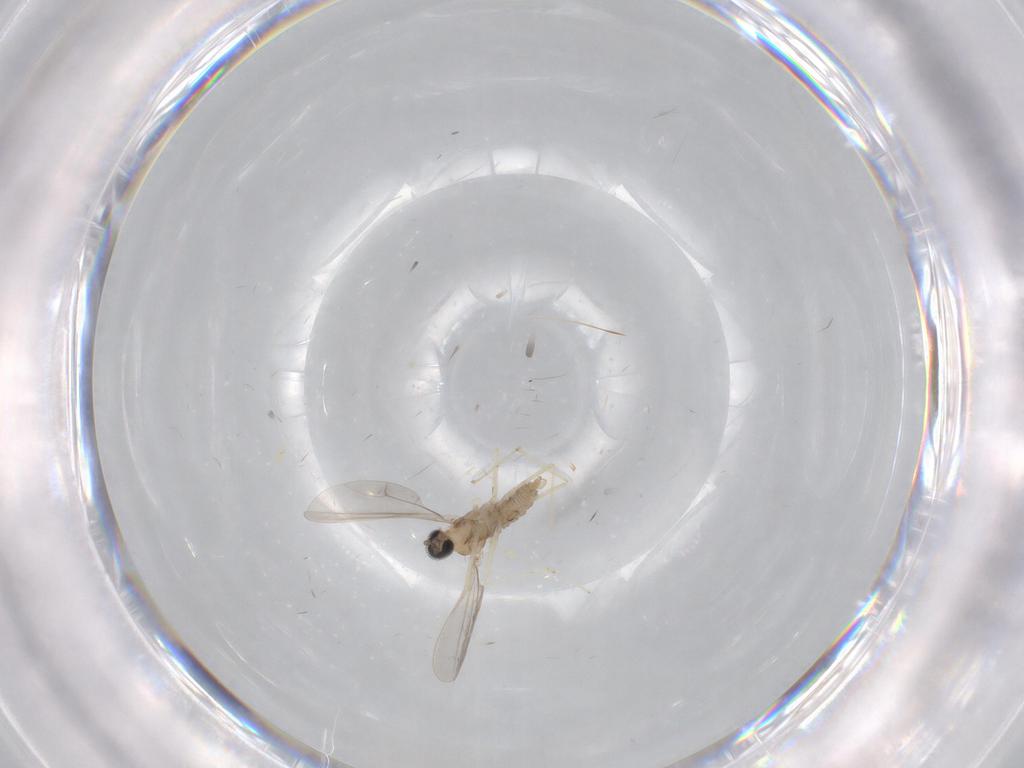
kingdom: Animalia
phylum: Arthropoda
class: Insecta
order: Diptera
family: Cecidomyiidae
